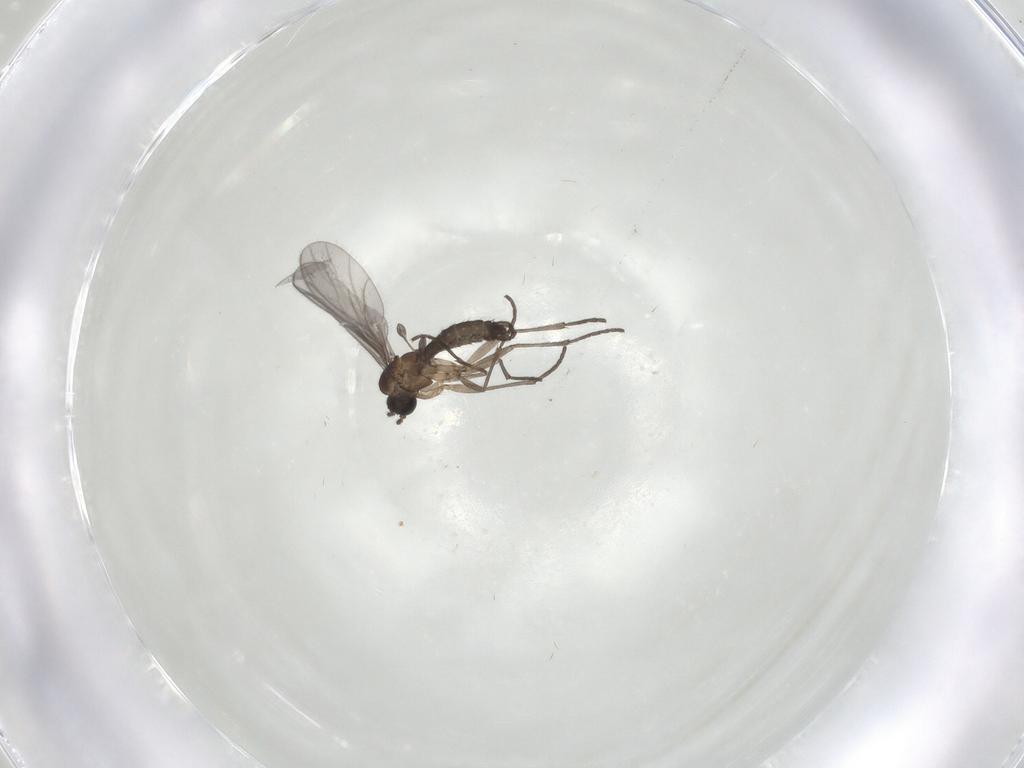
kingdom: Animalia
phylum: Arthropoda
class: Insecta
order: Diptera
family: Sciaridae
